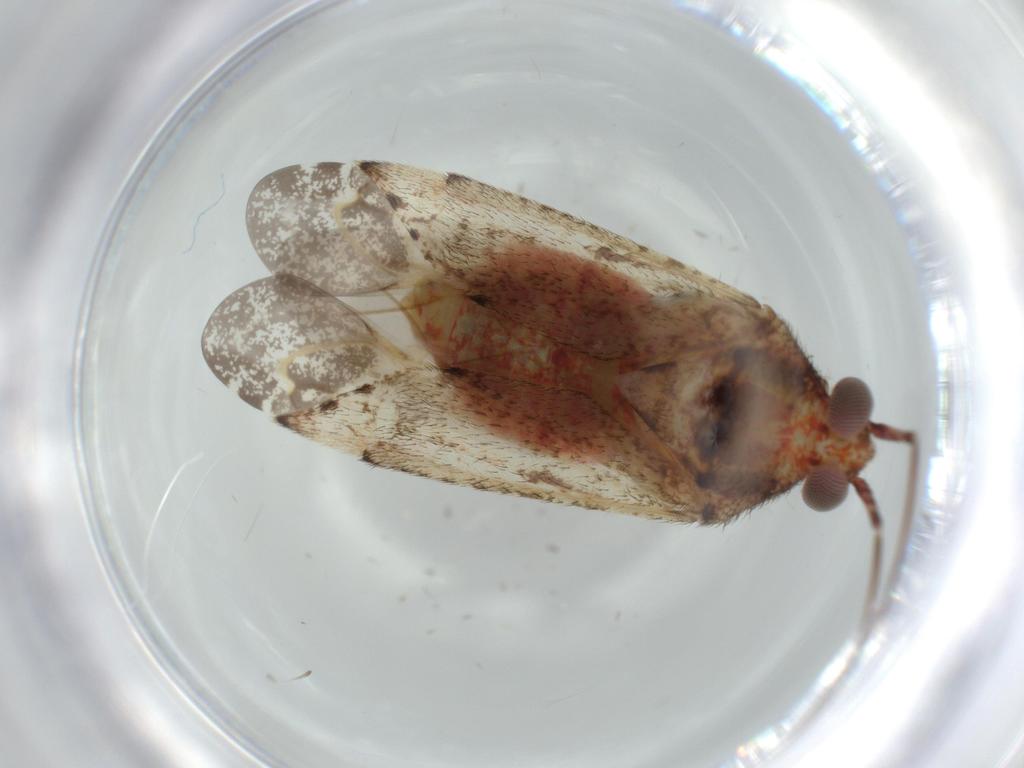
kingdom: Animalia
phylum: Arthropoda
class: Insecta
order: Hemiptera
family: Miridae
